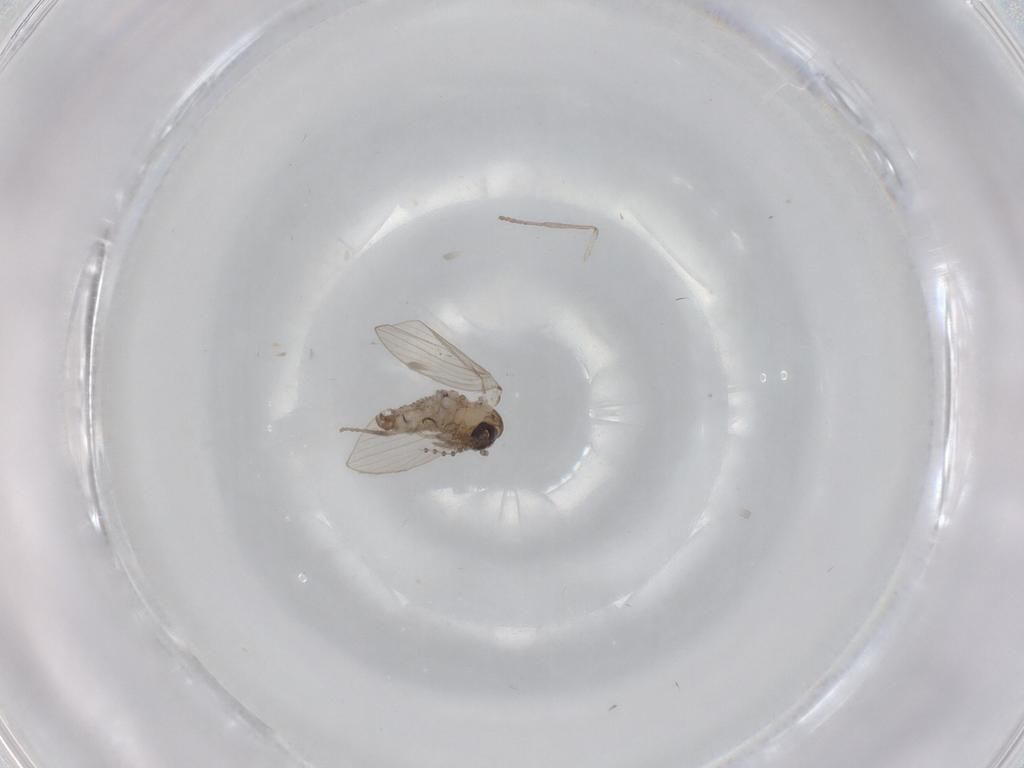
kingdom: Animalia
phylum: Arthropoda
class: Insecta
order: Diptera
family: Psychodidae
